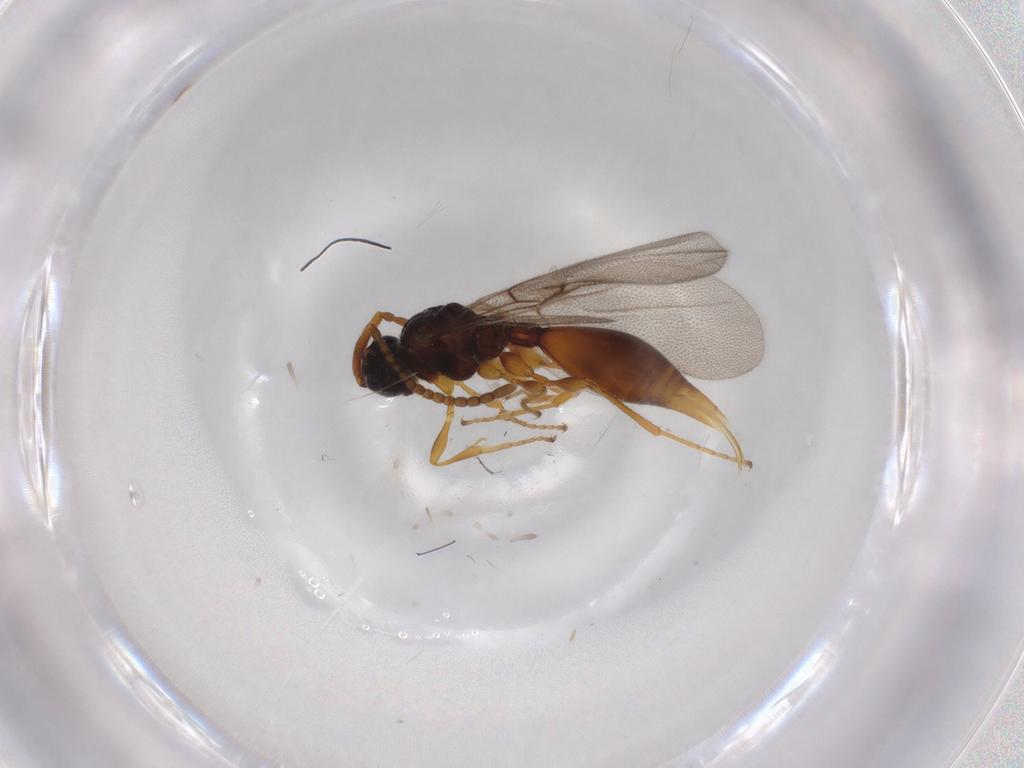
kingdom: Animalia
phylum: Arthropoda
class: Insecta
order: Hymenoptera
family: Diapriidae
